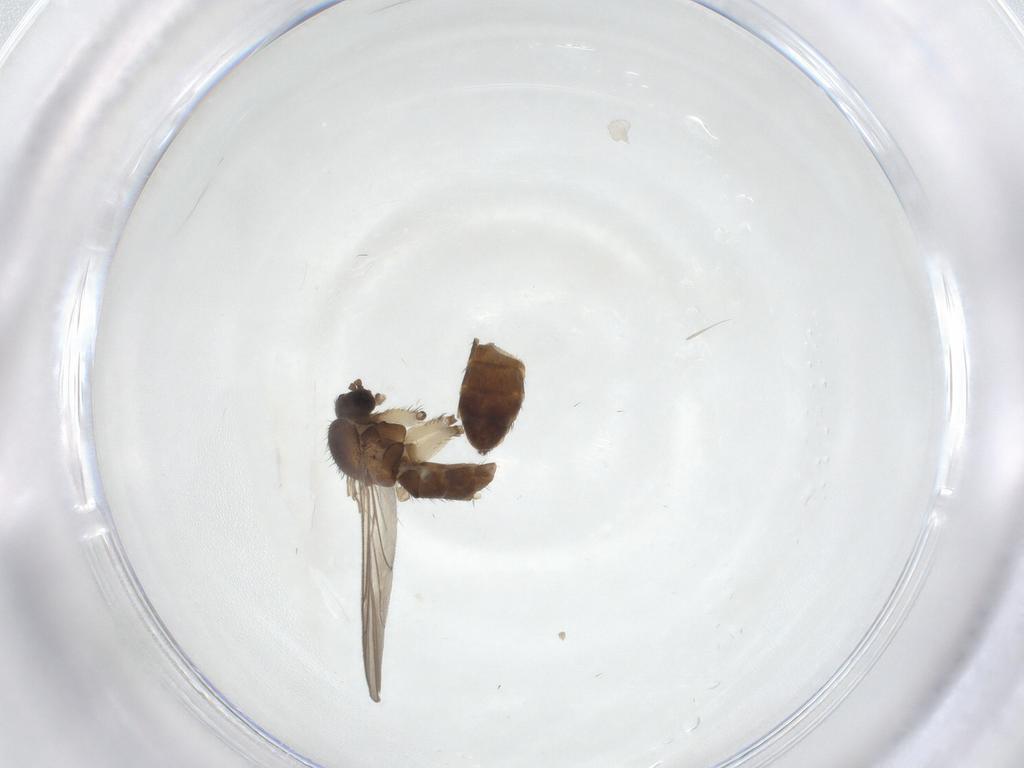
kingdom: Animalia
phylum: Arthropoda
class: Insecta
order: Diptera
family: Keroplatidae
